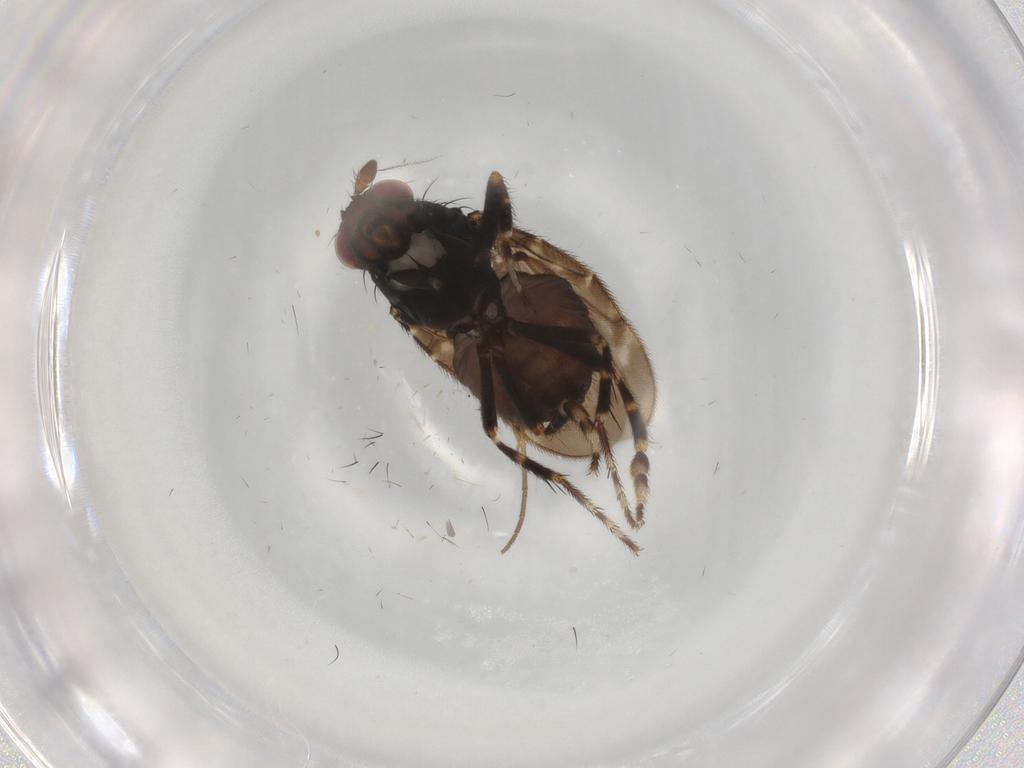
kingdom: Animalia
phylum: Arthropoda
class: Insecta
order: Diptera
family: Sphaeroceridae
